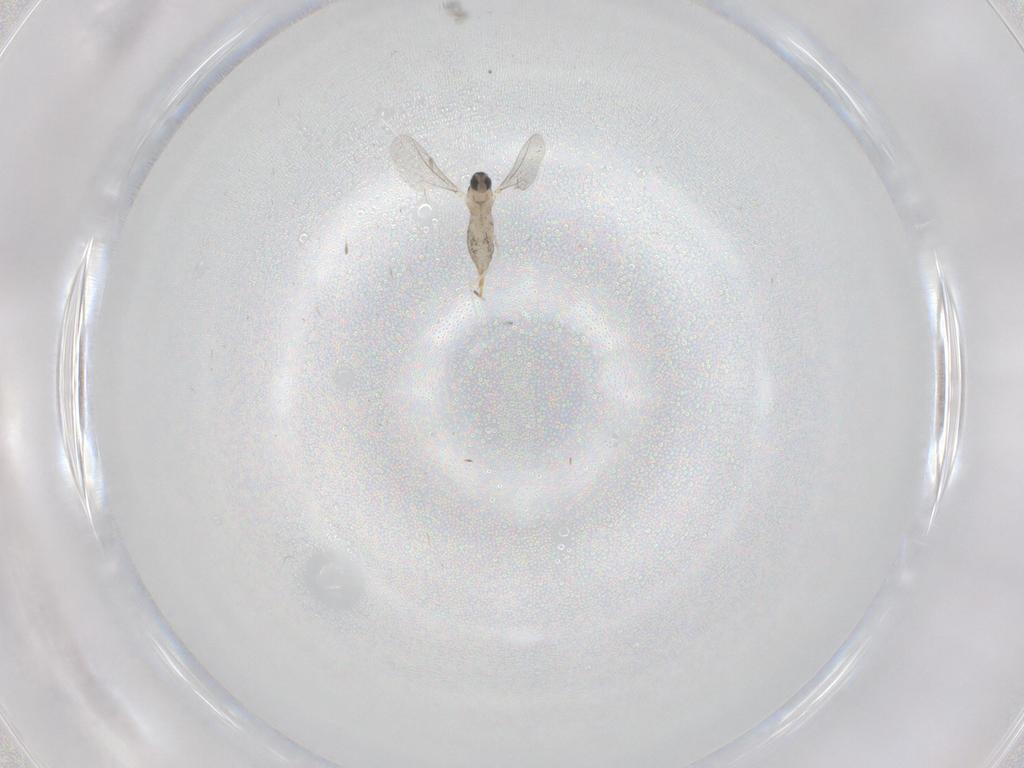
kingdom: Animalia
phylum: Arthropoda
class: Insecta
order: Diptera
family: Cecidomyiidae
